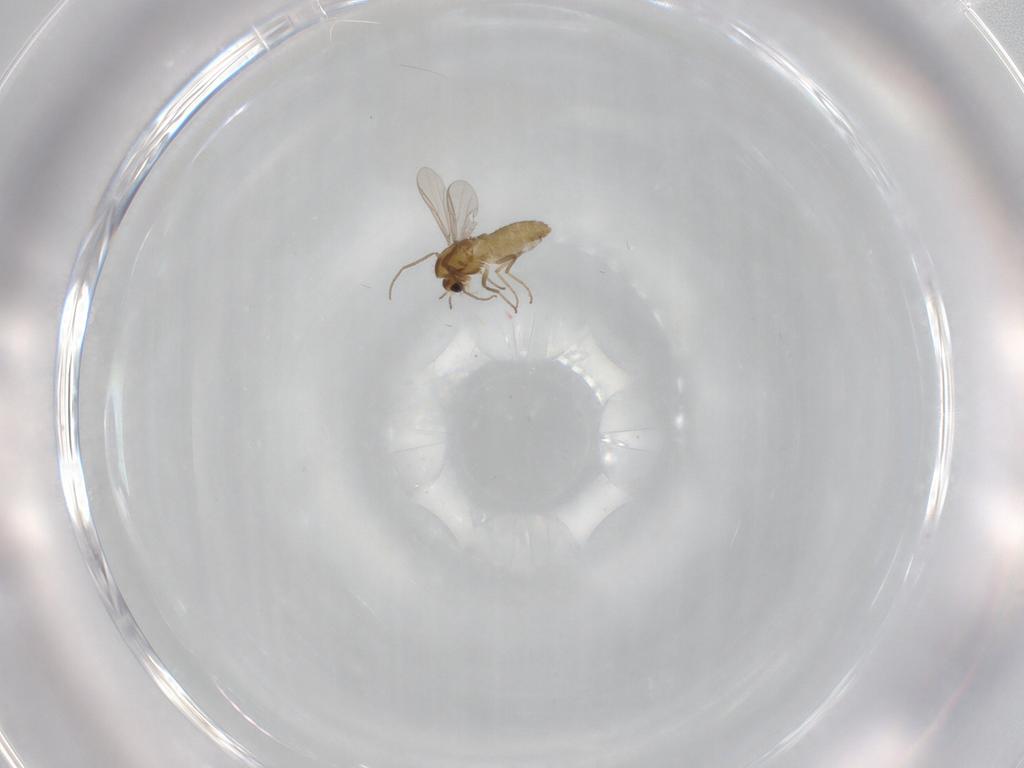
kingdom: Animalia
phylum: Arthropoda
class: Insecta
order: Diptera
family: Chironomidae
